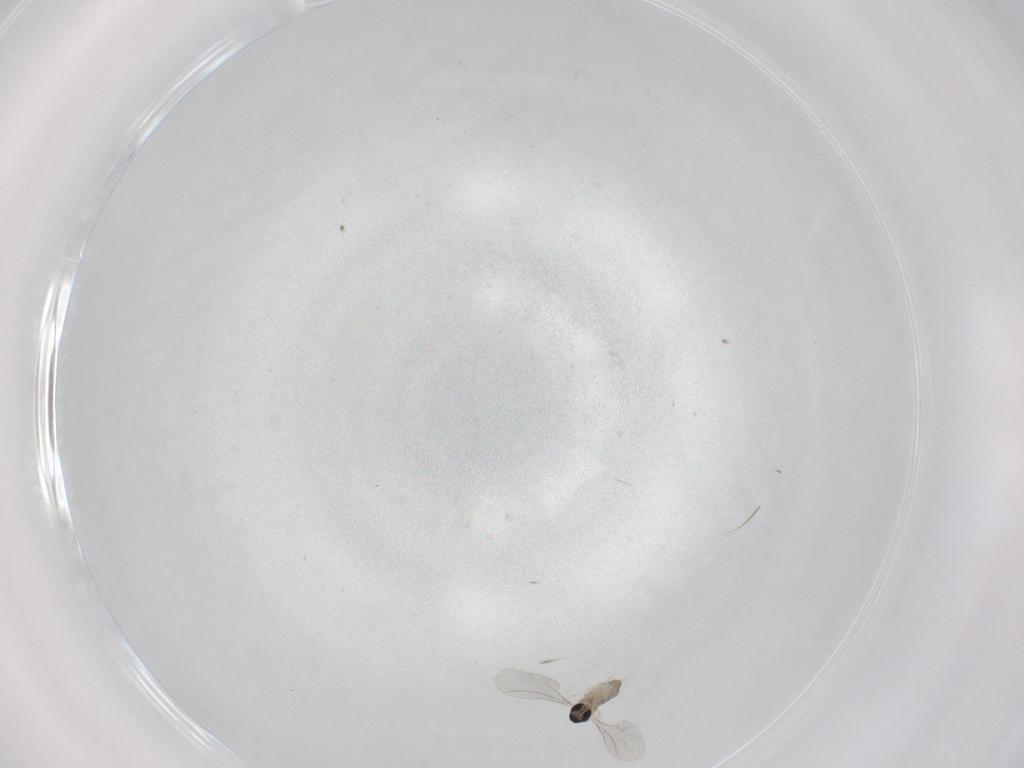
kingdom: Animalia
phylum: Arthropoda
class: Insecta
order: Diptera
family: Cecidomyiidae
